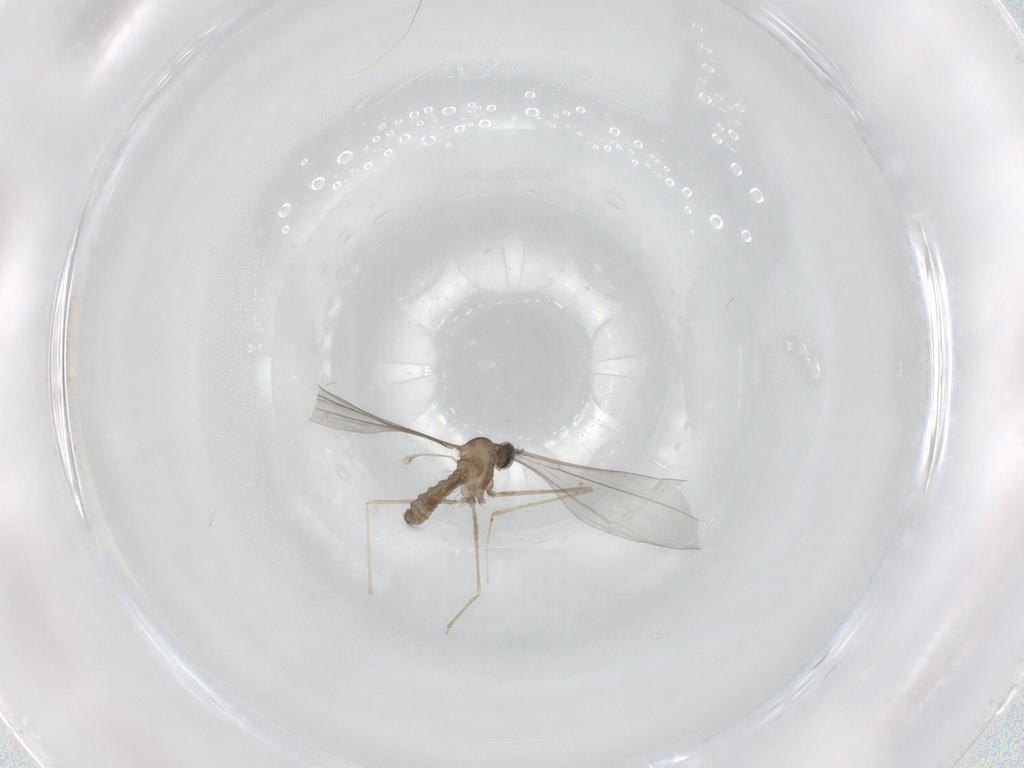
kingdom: Animalia
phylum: Arthropoda
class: Insecta
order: Diptera
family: Cecidomyiidae
